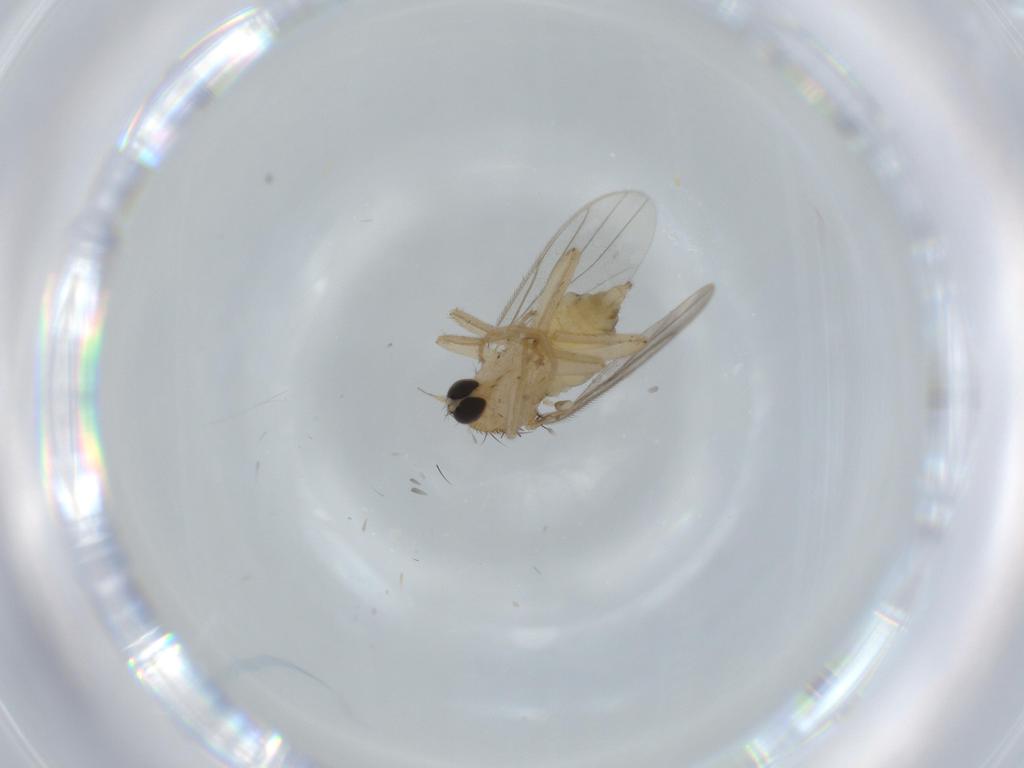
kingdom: Animalia
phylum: Arthropoda
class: Insecta
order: Diptera
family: Hybotidae
